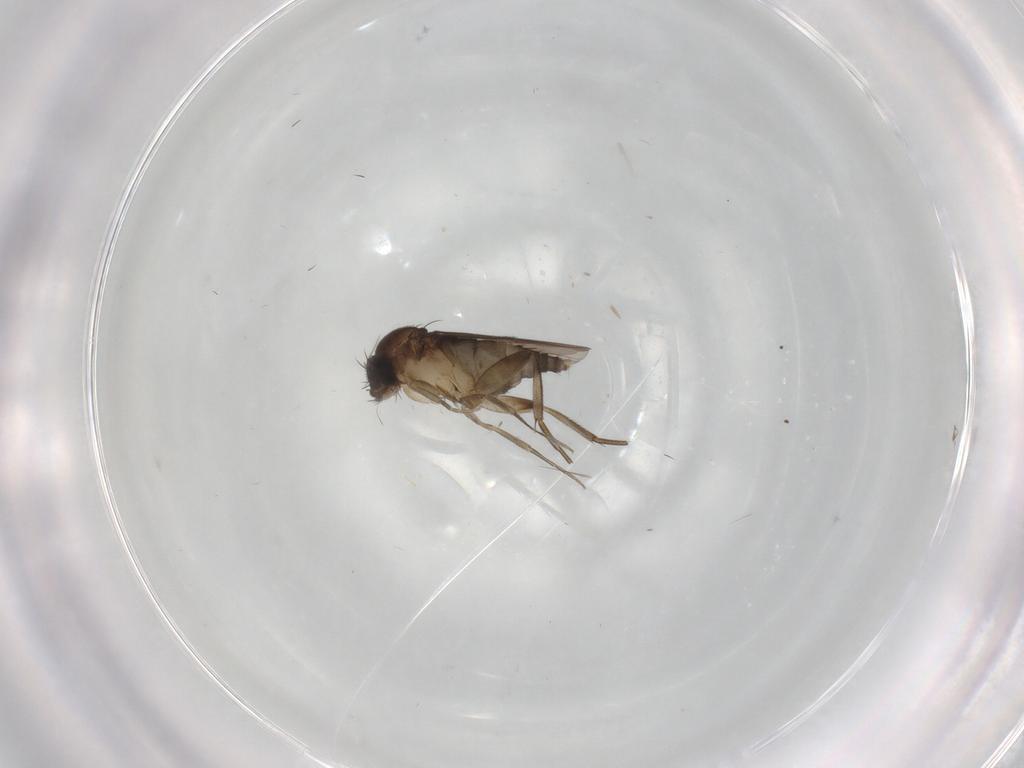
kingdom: Animalia
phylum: Arthropoda
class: Insecta
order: Diptera
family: Phoridae
